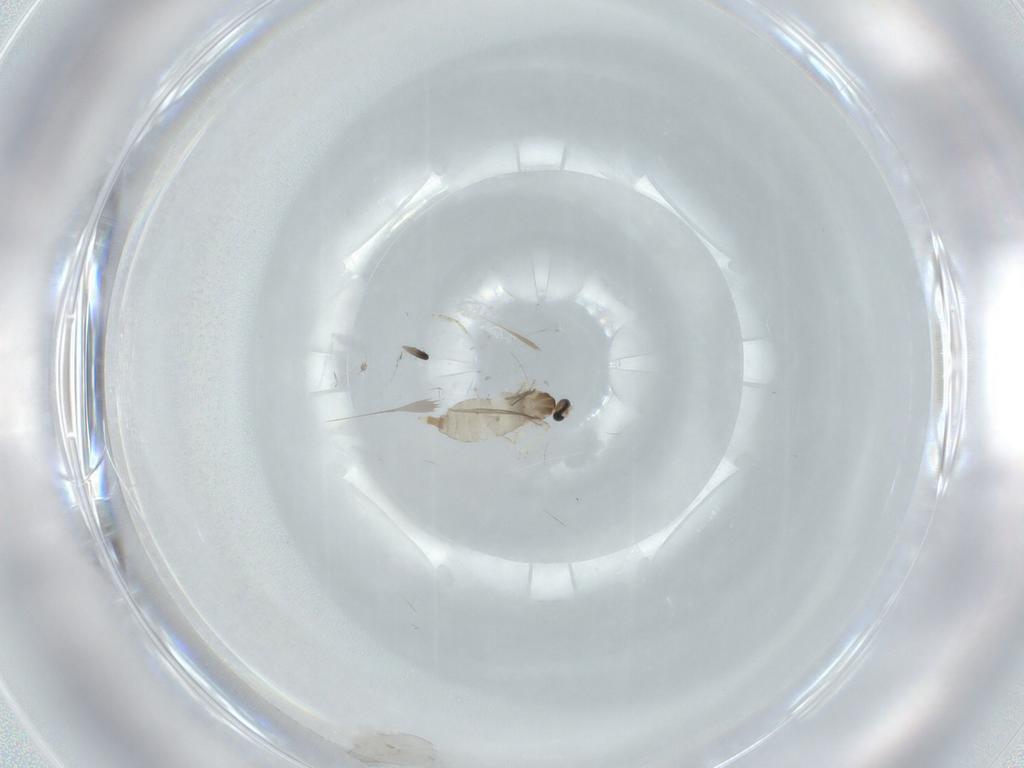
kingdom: Animalia
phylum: Arthropoda
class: Insecta
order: Diptera
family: Cecidomyiidae
